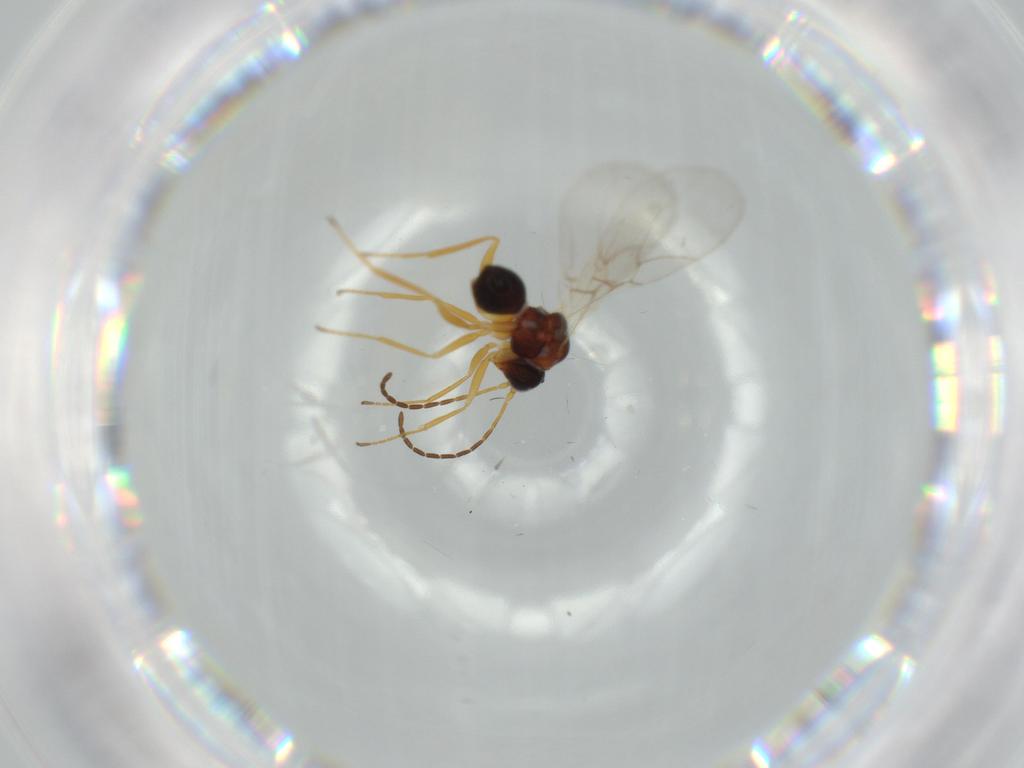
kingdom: Animalia
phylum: Arthropoda
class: Insecta
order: Hymenoptera
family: Figitidae
